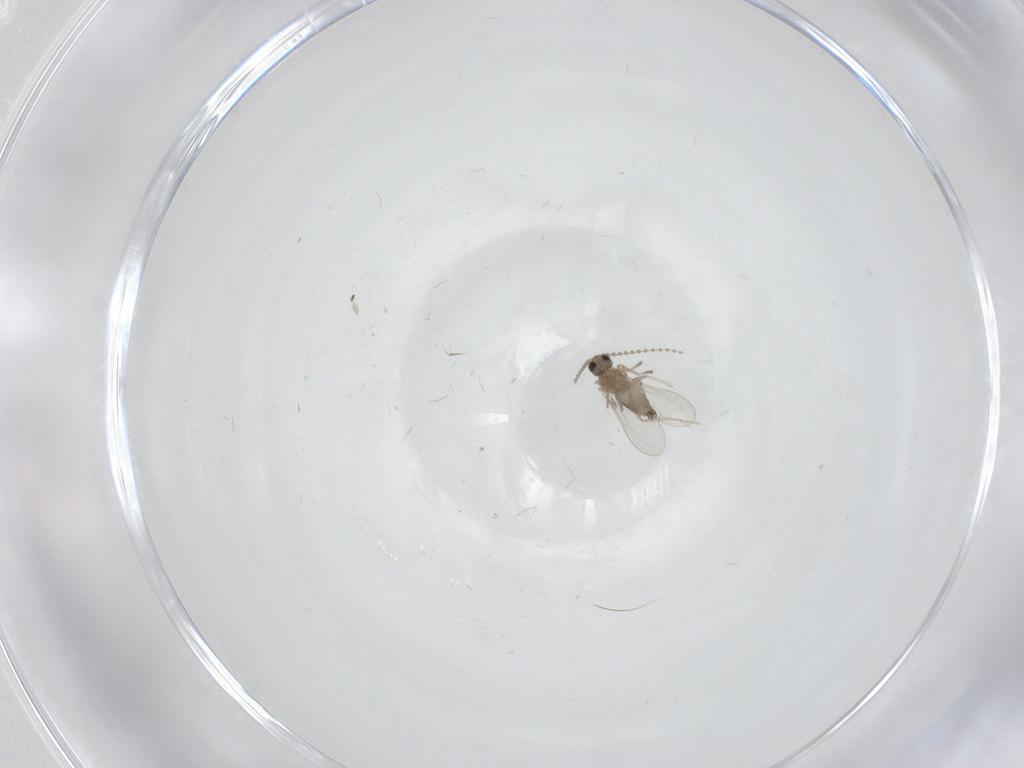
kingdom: Animalia
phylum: Arthropoda
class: Insecta
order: Diptera
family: Cecidomyiidae
